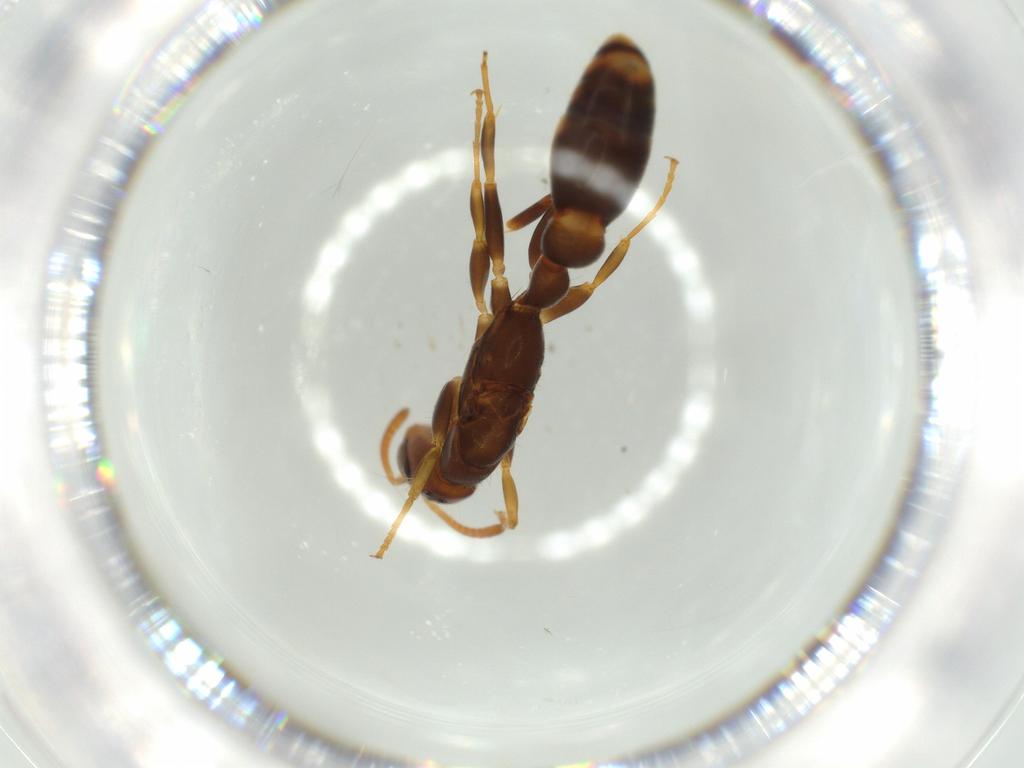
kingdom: Animalia
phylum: Arthropoda
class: Insecta
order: Hymenoptera
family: Formicidae
